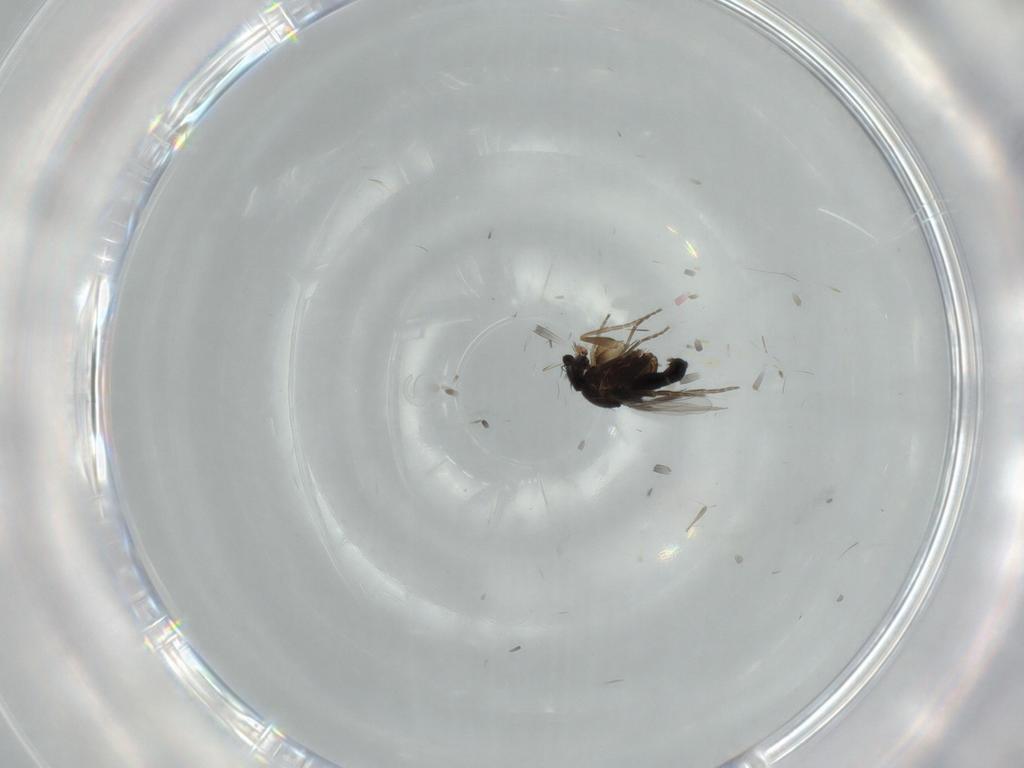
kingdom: Animalia
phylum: Arthropoda
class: Insecta
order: Diptera
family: Phoridae
